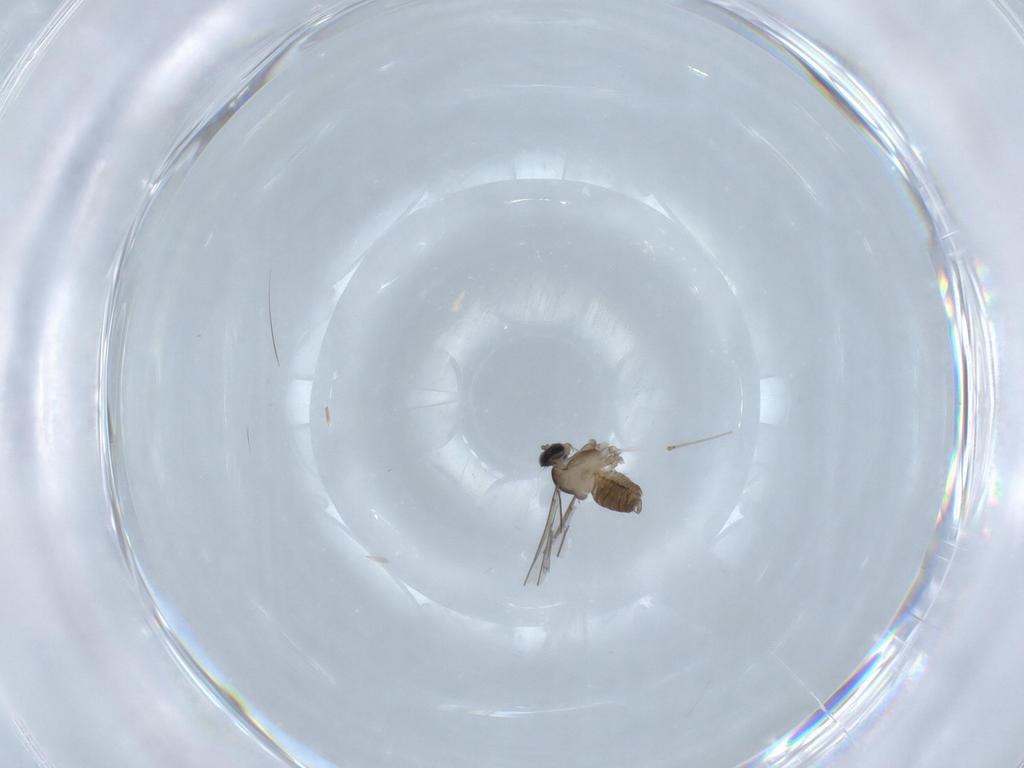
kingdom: Animalia
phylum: Arthropoda
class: Insecta
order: Diptera
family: Cecidomyiidae
